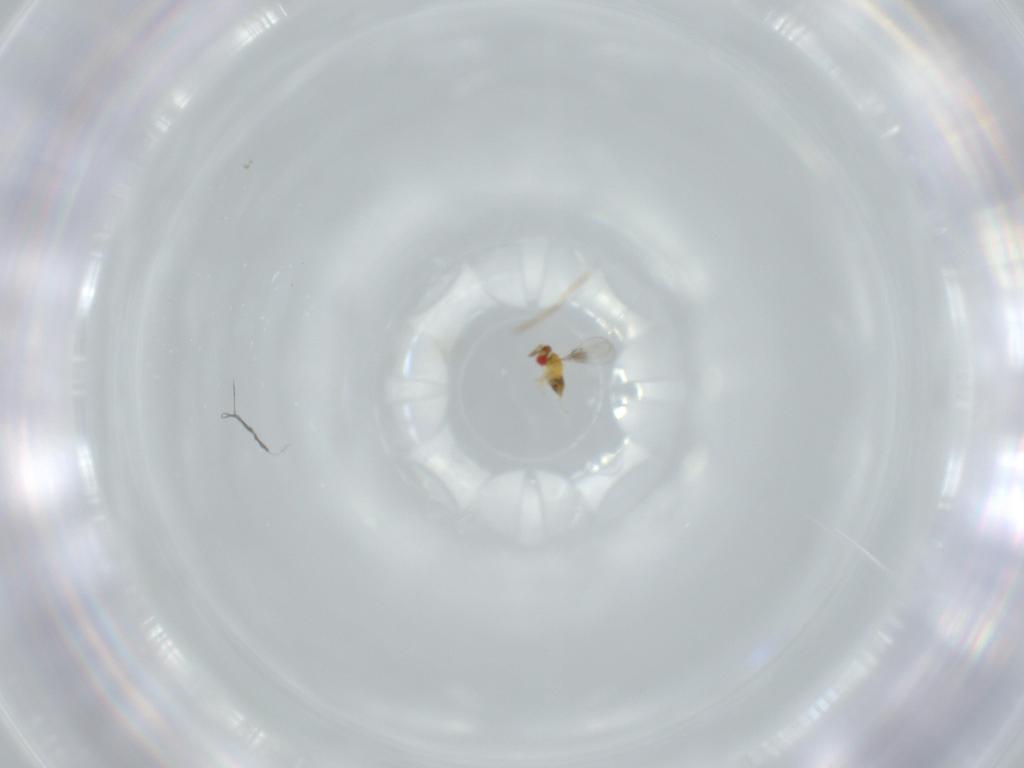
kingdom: Animalia
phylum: Arthropoda
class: Insecta
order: Hymenoptera
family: Trichogrammatidae
